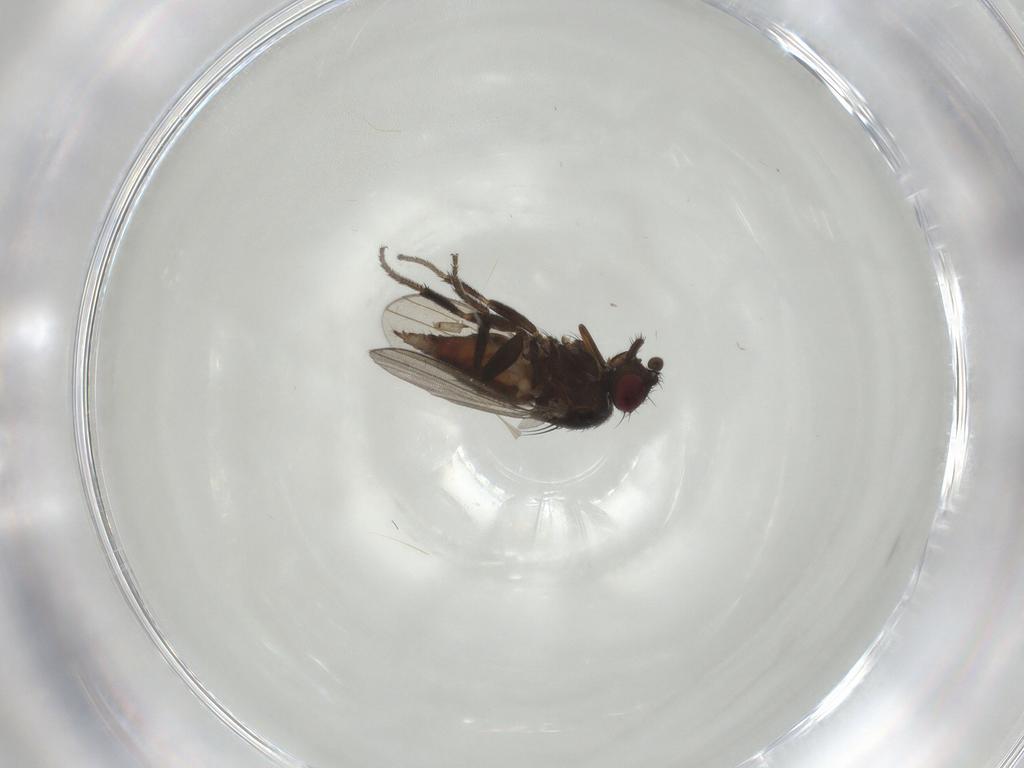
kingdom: Animalia
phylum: Arthropoda
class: Insecta
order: Diptera
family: Milichiidae
